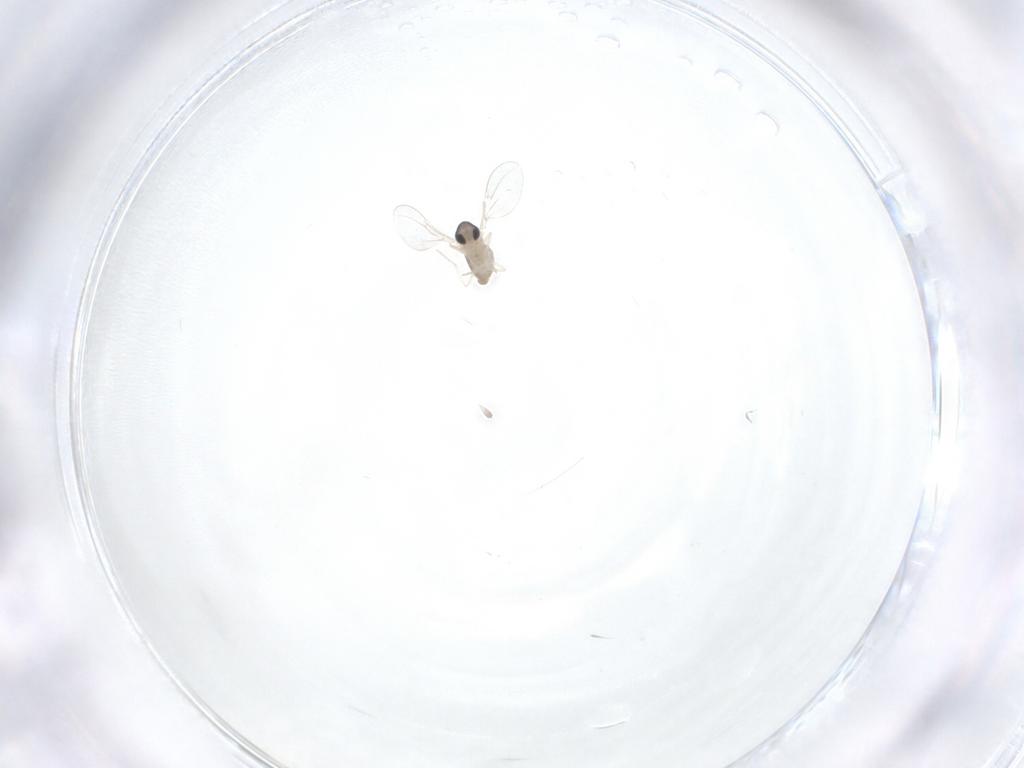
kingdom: Animalia
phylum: Arthropoda
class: Insecta
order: Diptera
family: Cecidomyiidae
